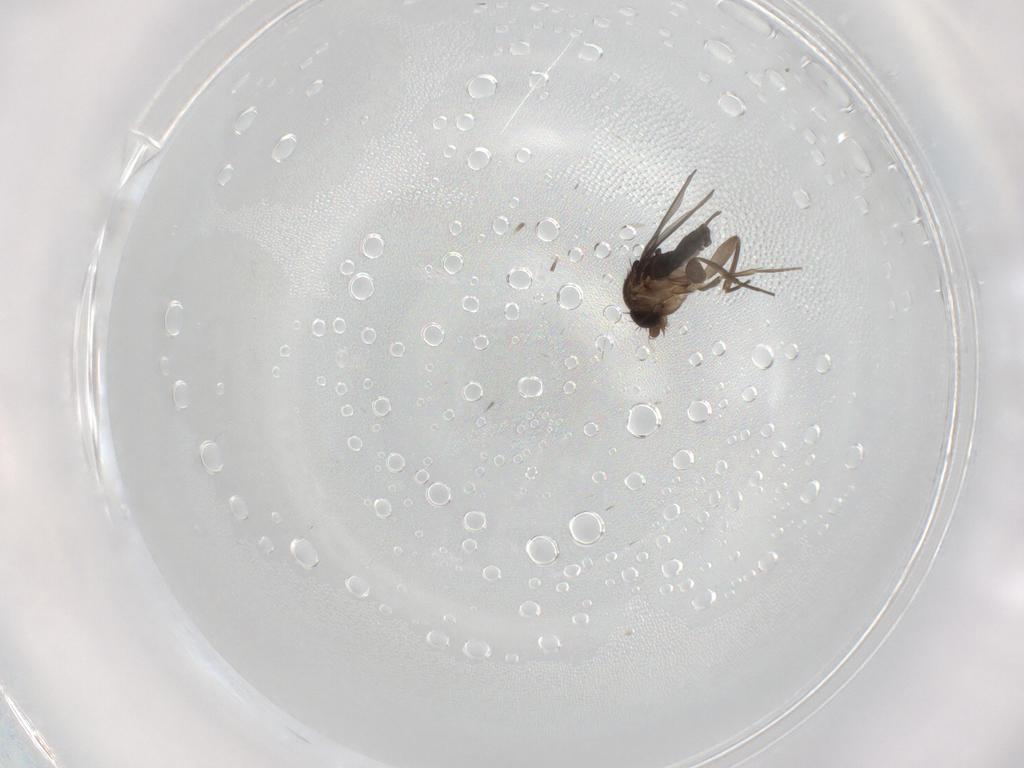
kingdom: Animalia
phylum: Arthropoda
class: Insecta
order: Diptera
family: Phoridae
